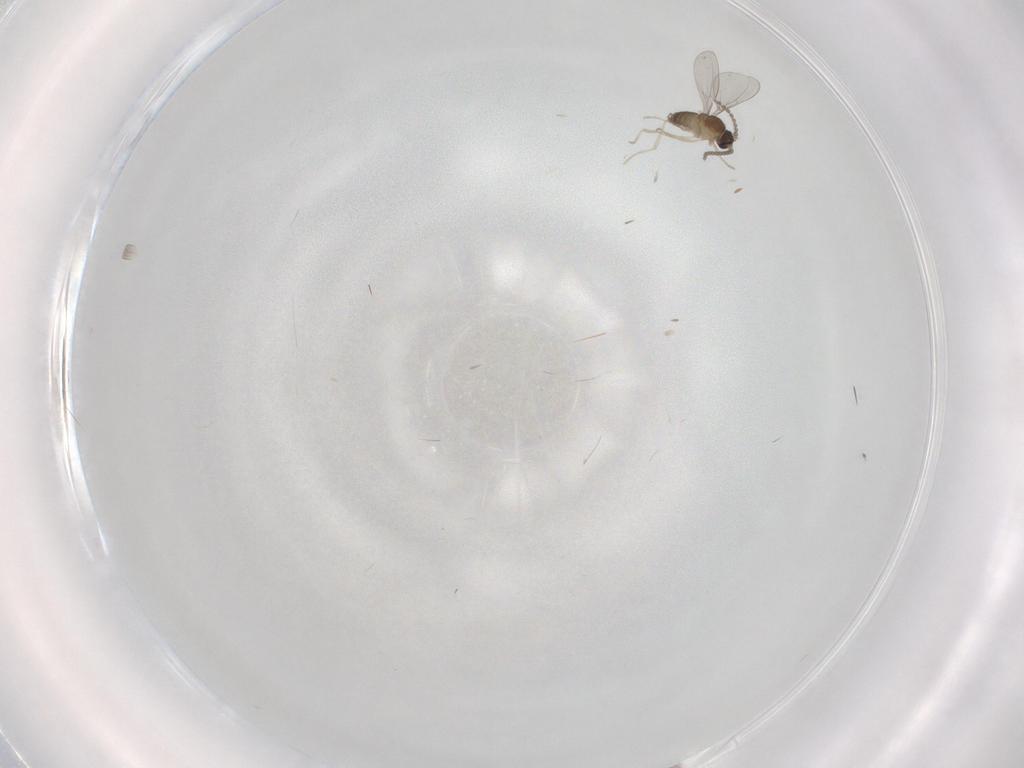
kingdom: Animalia
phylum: Arthropoda
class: Insecta
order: Diptera
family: Cecidomyiidae
